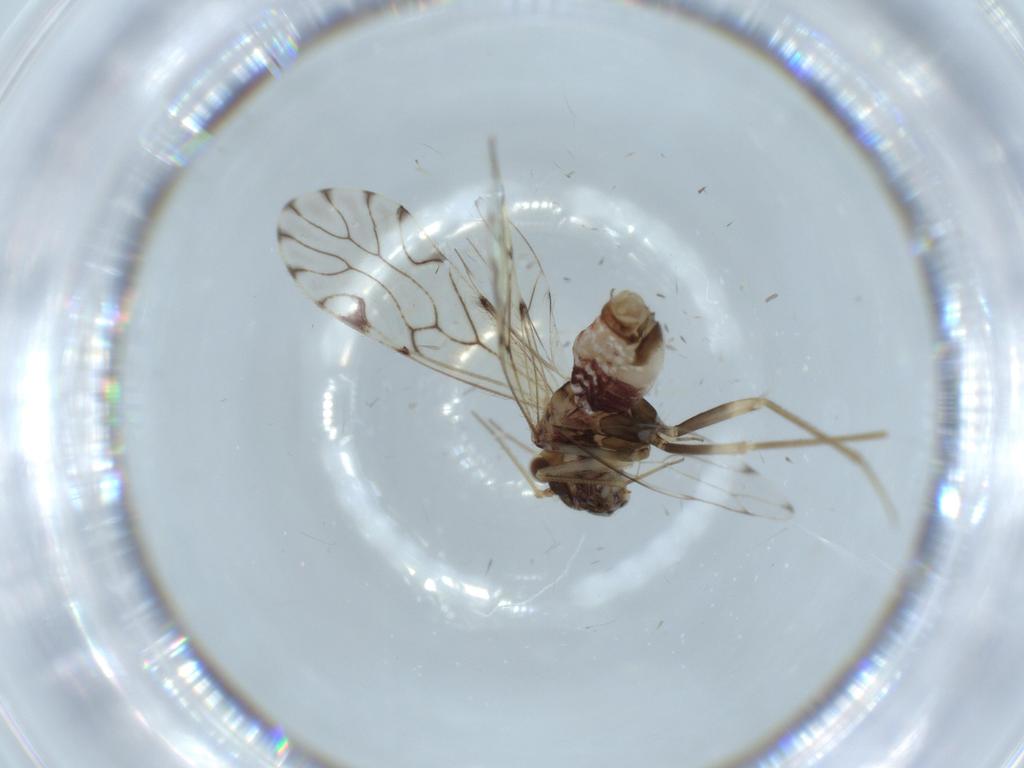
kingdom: Animalia
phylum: Arthropoda
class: Insecta
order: Psocodea
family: Epipsocidae
